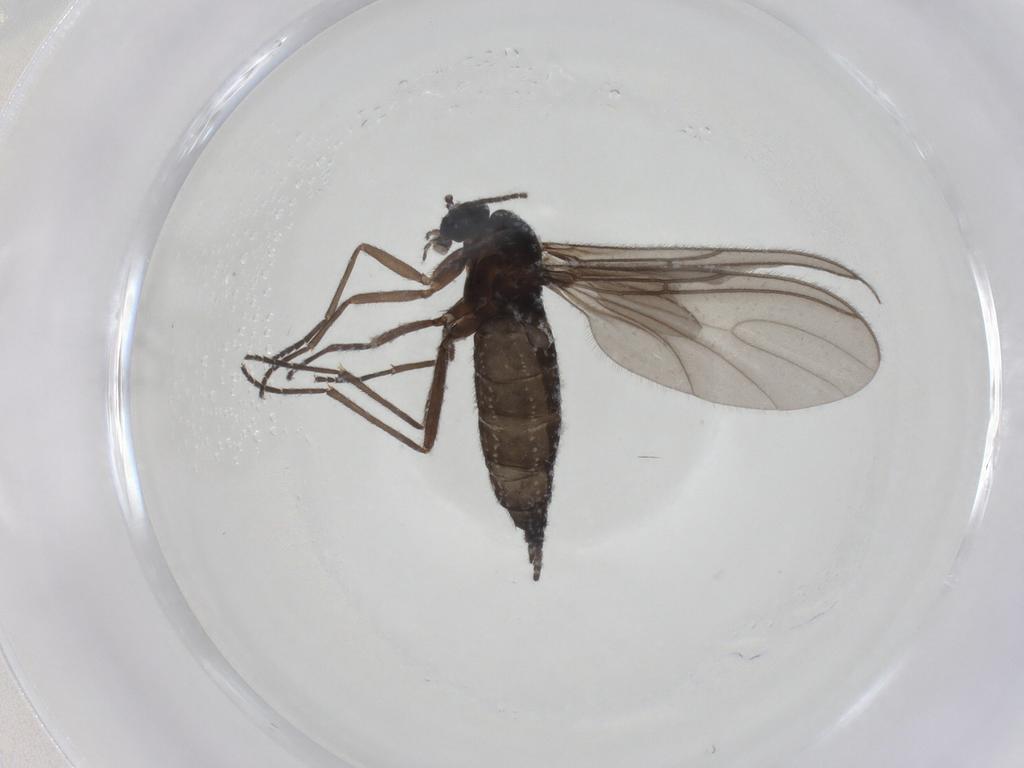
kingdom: Animalia
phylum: Arthropoda
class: Insecta
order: Diptera
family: Sciaridae
